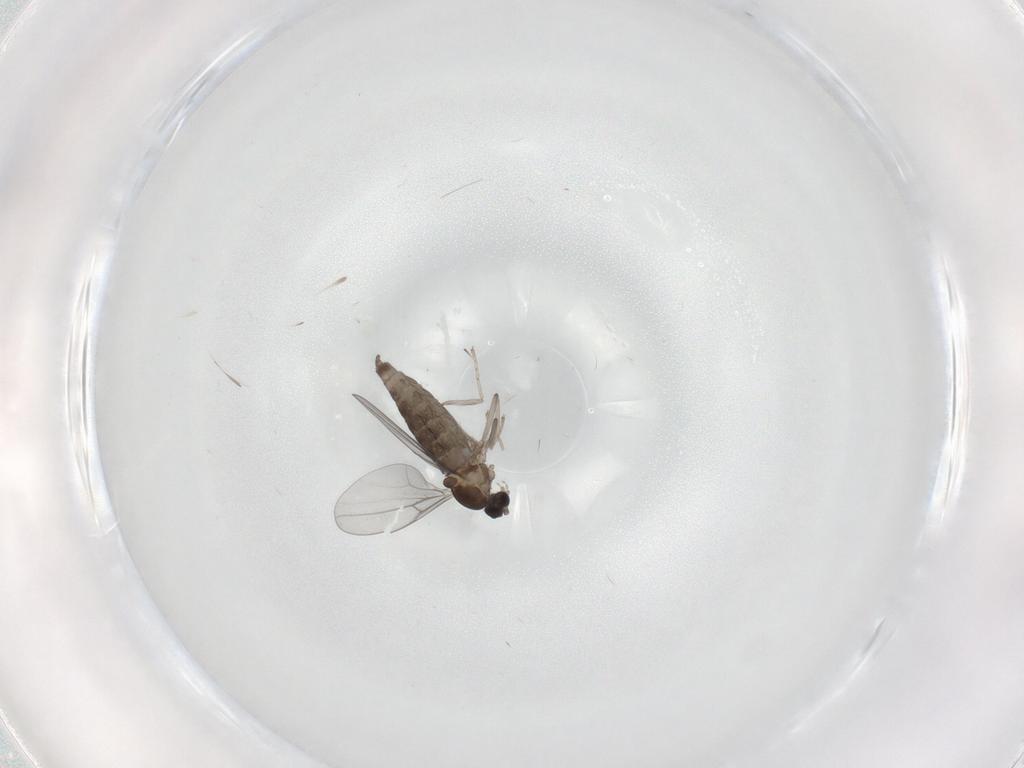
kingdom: Animalia
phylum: Arthropoda
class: Insecta
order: Diptera
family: Cecidomyiidae
